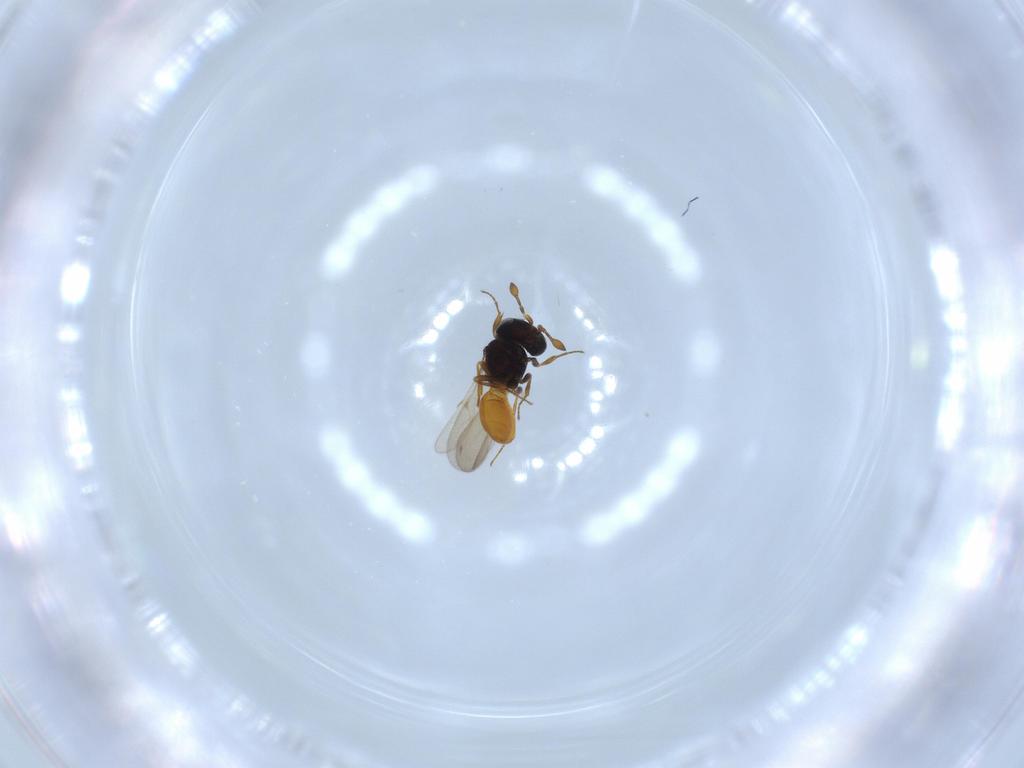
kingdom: Animalia
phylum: Arthropoda
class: Insecta
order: Hymenoptera
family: Scelionidae
